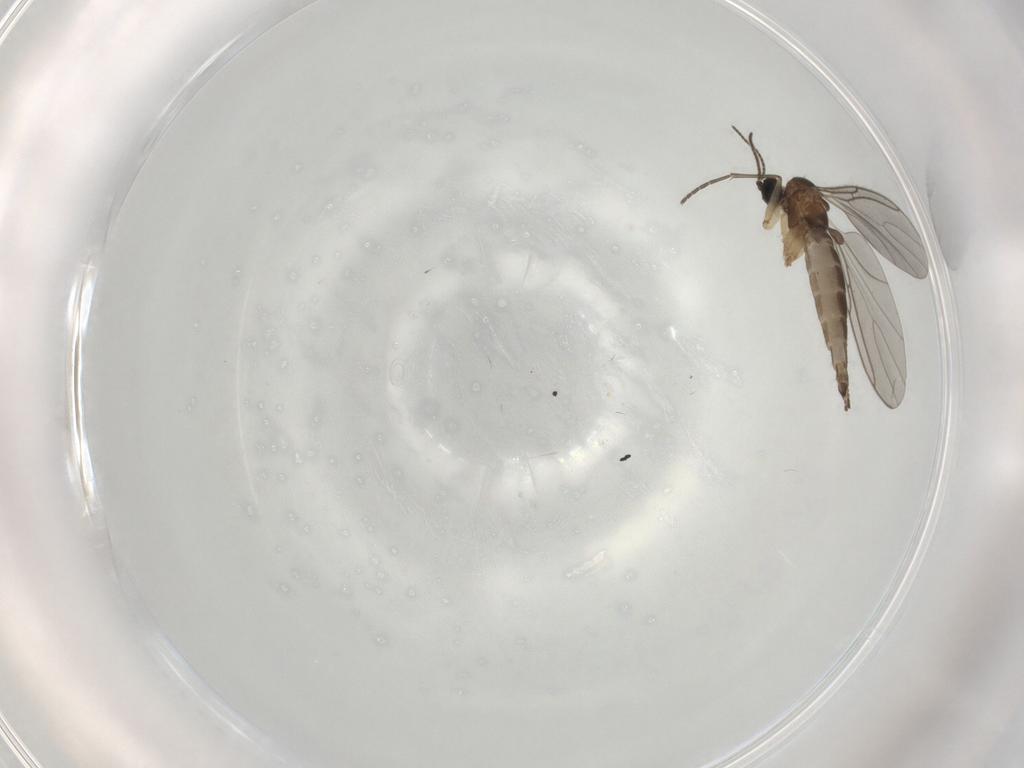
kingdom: Animalia
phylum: Arthropoda
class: Insecta
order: Diptera
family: Sciaridae
